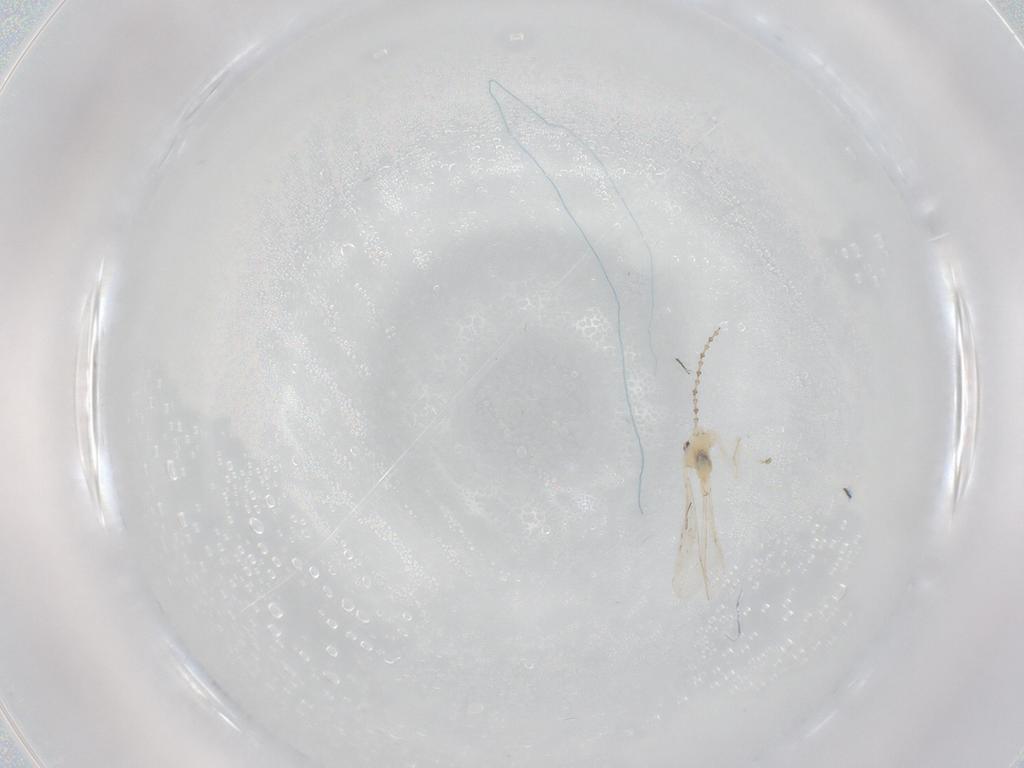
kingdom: Animalia
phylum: Arthropoda
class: Insecta
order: Diptera
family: Cecidomyiidae
